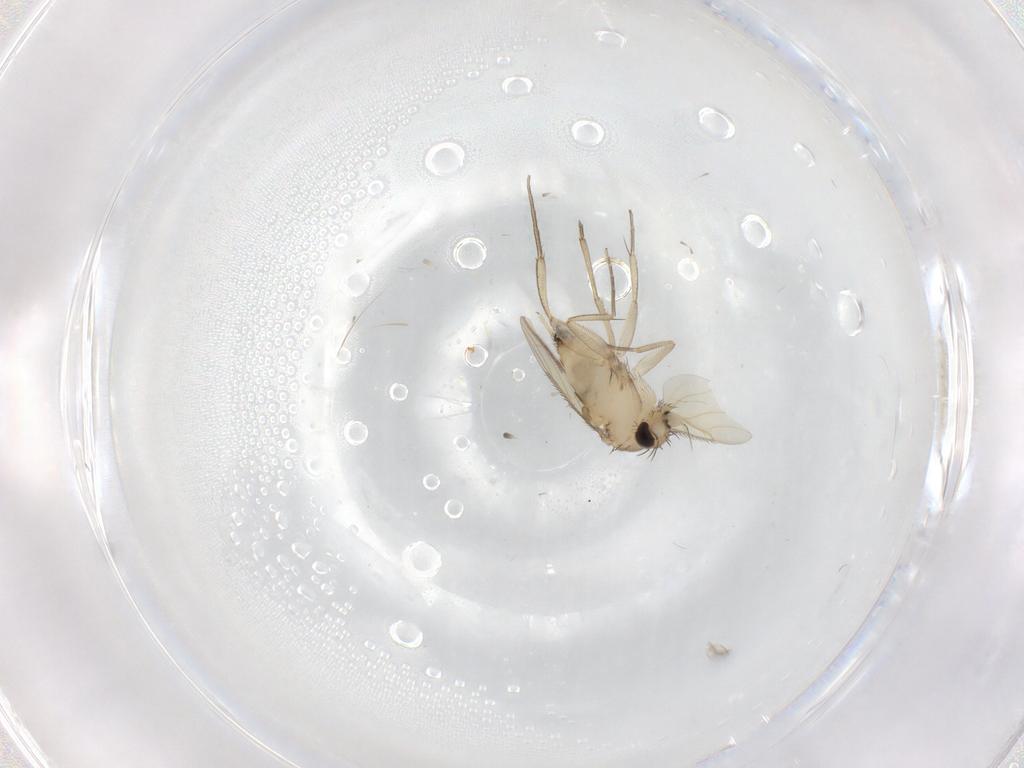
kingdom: Animalia
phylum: Arthropoda
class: Insecta
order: Diptera
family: Phoridae
